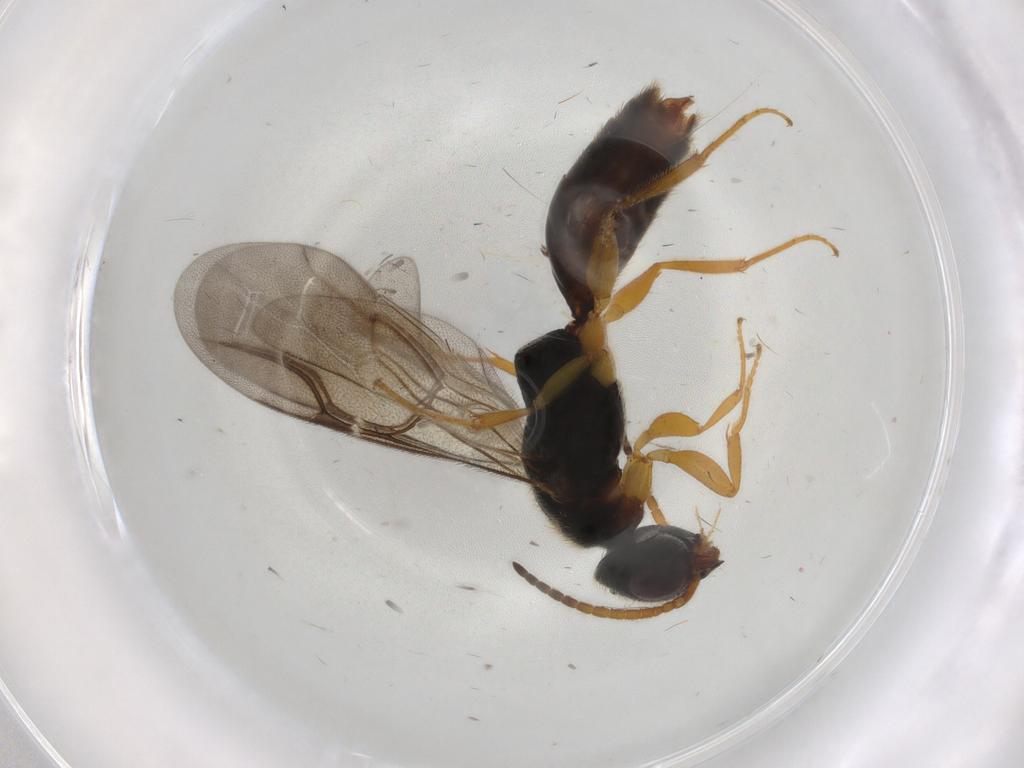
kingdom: Animalia
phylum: Arthropoda
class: Insecta
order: Hymenoptera
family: Bethylidae
